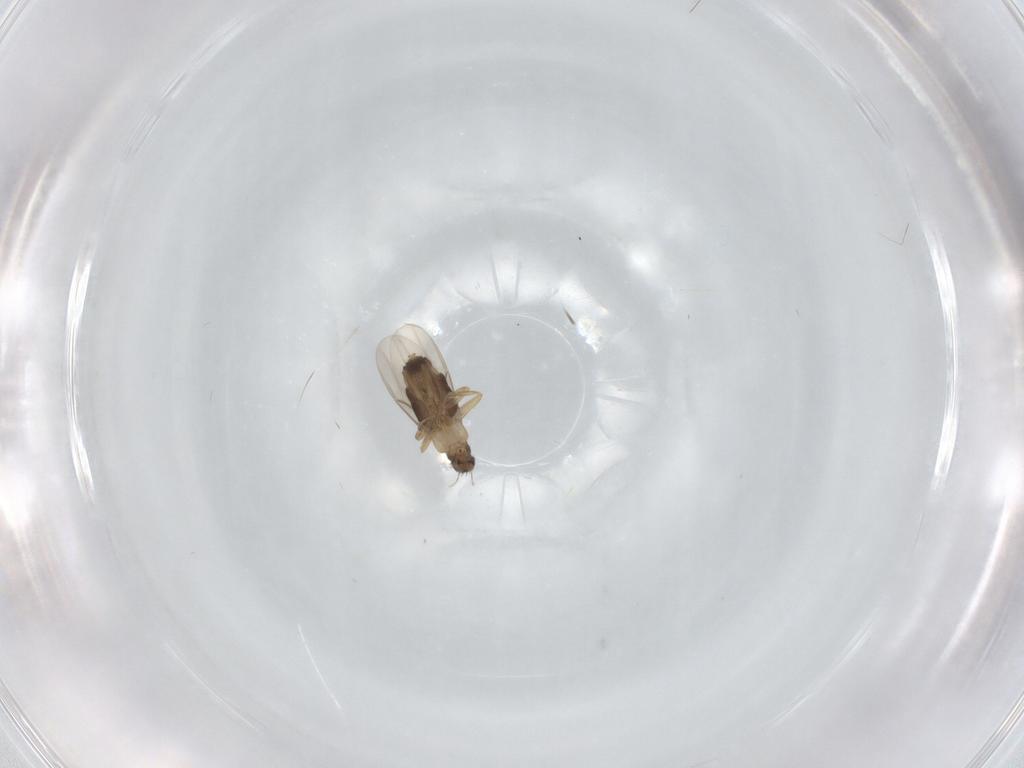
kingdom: Animalia
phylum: Arthropoda
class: Insecta
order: Diptera
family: Phoridae
